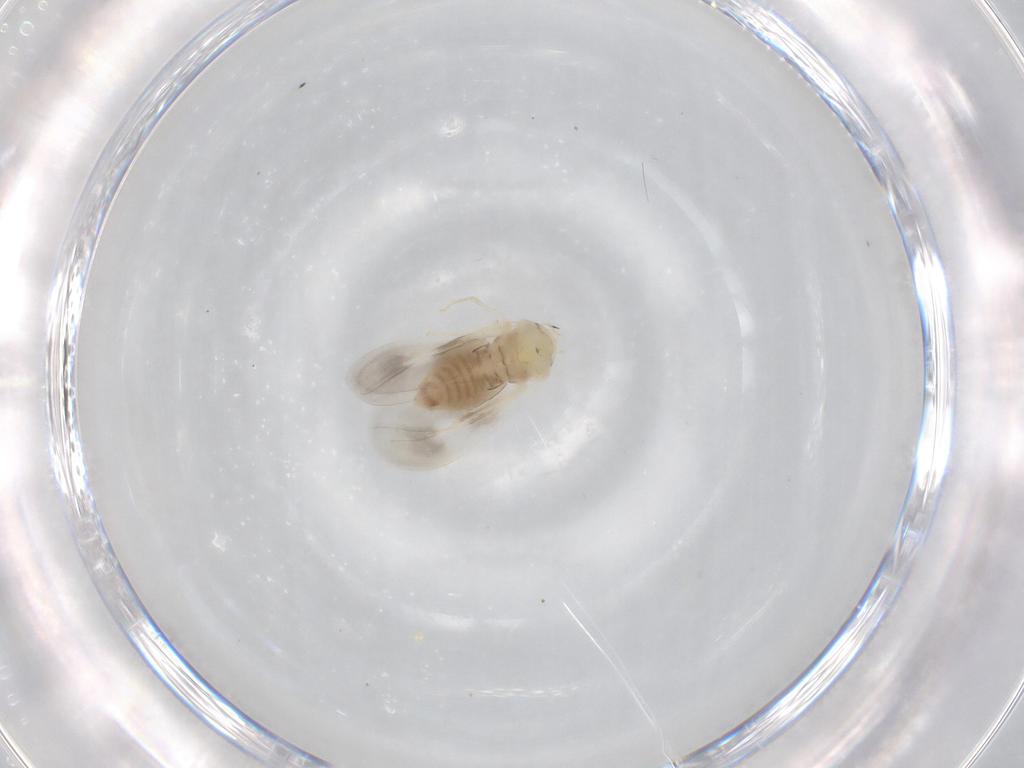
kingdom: Animalia
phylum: Arthropoda
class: Insecta
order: Hemiptera
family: Aleyrodidae
